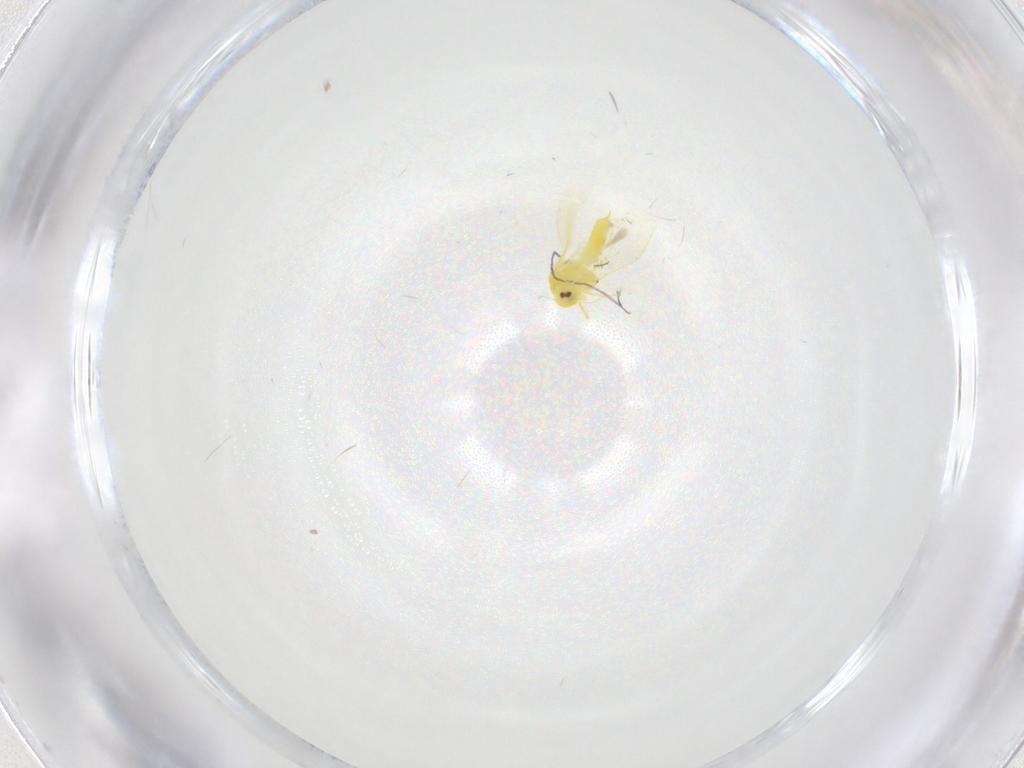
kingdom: Animalia
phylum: Arthropoda
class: Insecta
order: Hemiptera
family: Aleyrodidae
